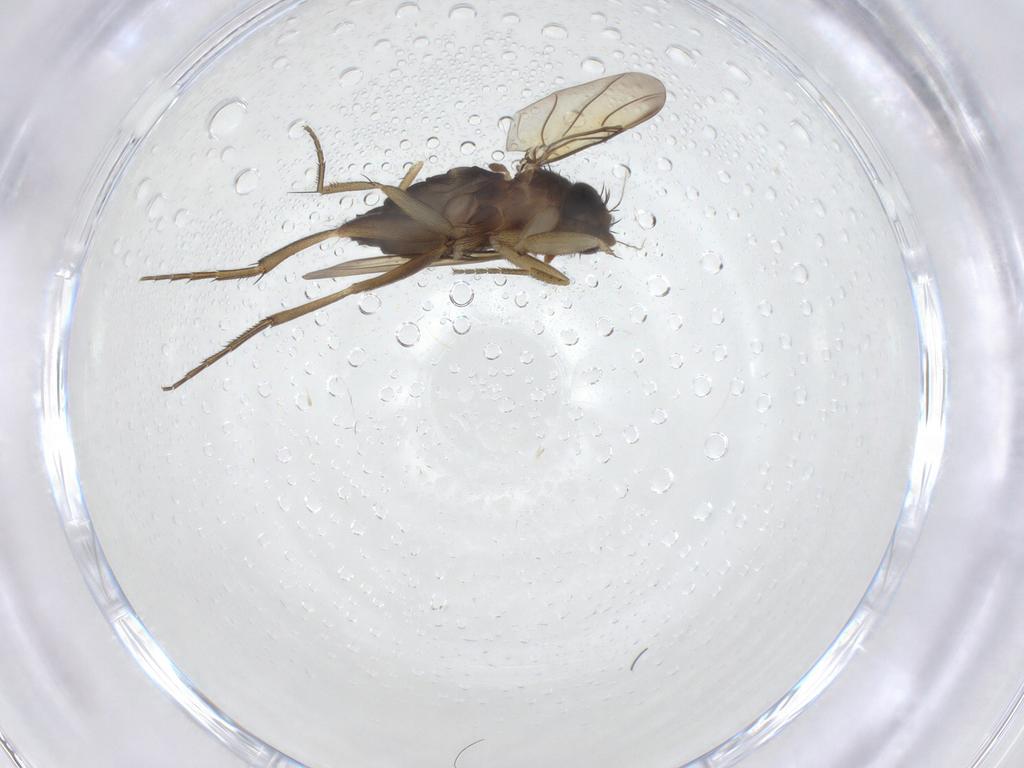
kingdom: Animalia
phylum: Arthropoda
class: Insecta
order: Diptera
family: Phoridae
